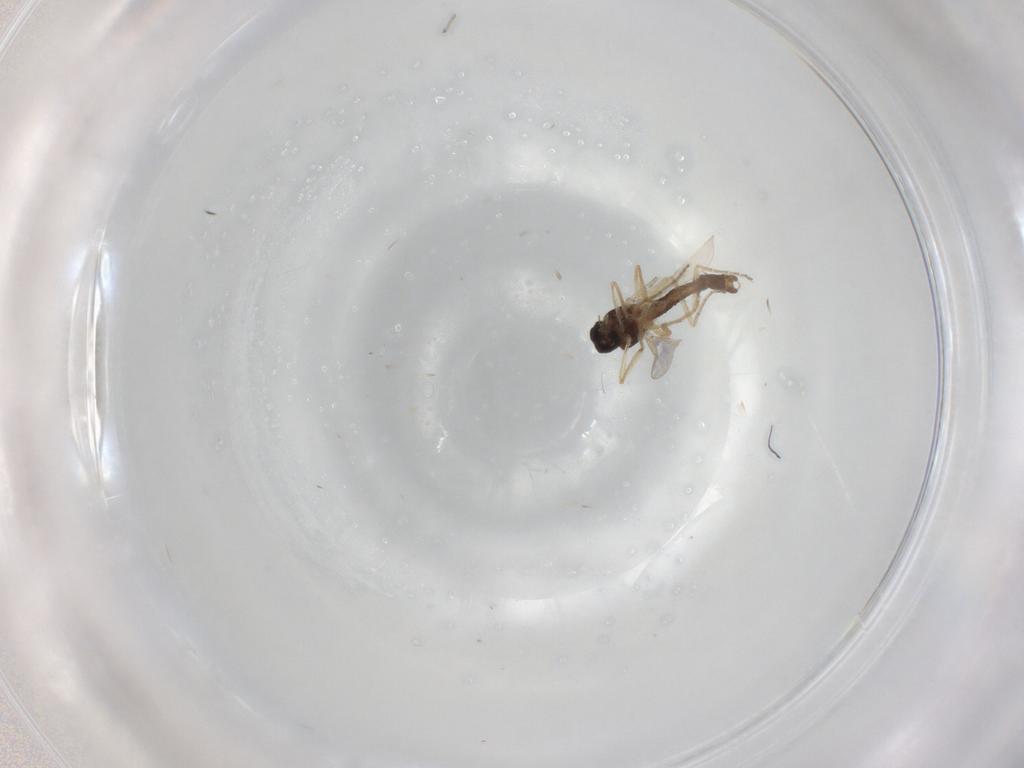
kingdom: Animalia
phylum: Arthropoda
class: Insecta
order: Diptera
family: Ceratopogonidae
